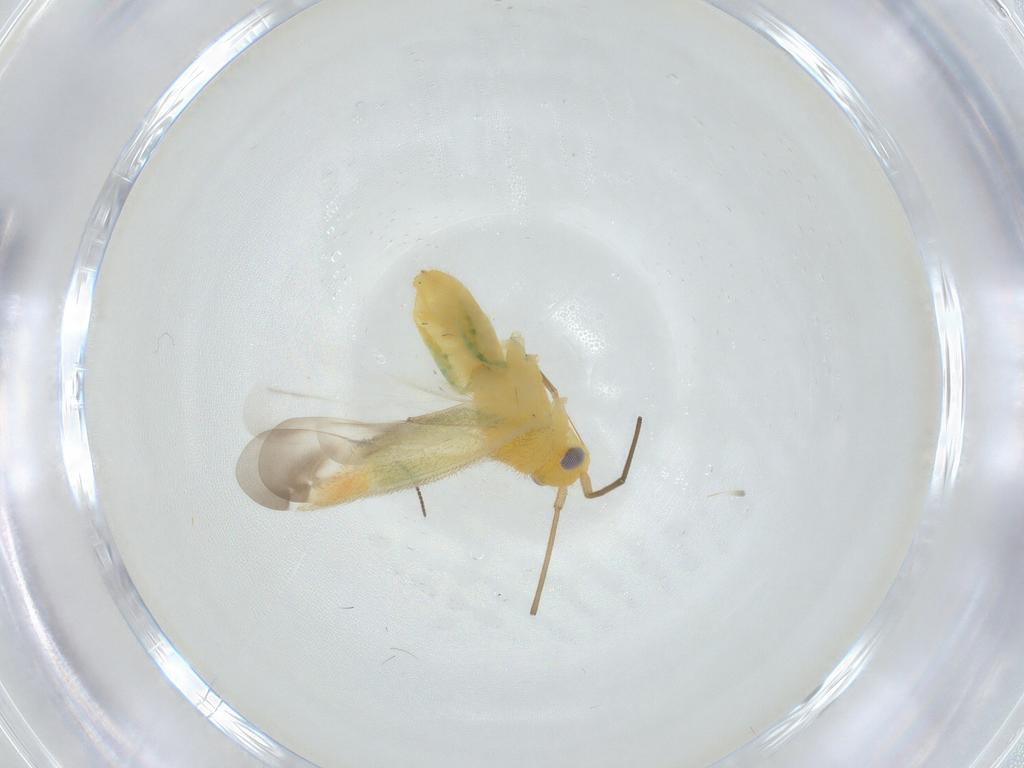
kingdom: Animalia
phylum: Arthropoda
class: Insecta
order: Diptera
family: Sciaridae
